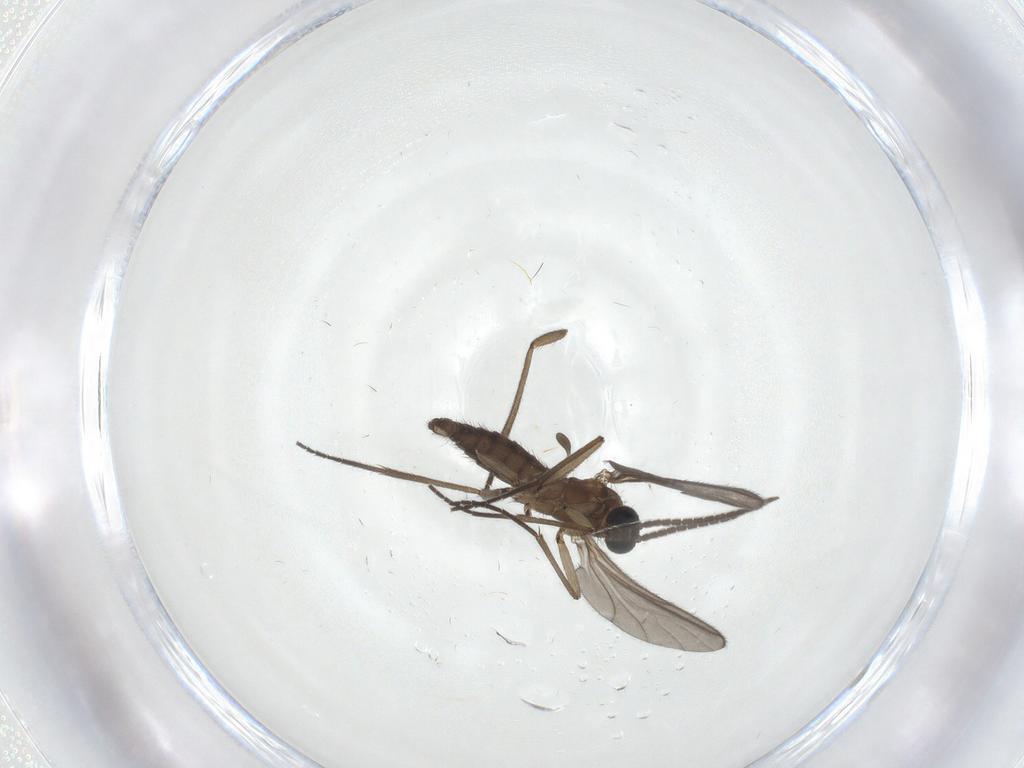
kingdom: Animalia
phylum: Arthropoda
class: Insecta
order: Diptera
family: Sciaridae
